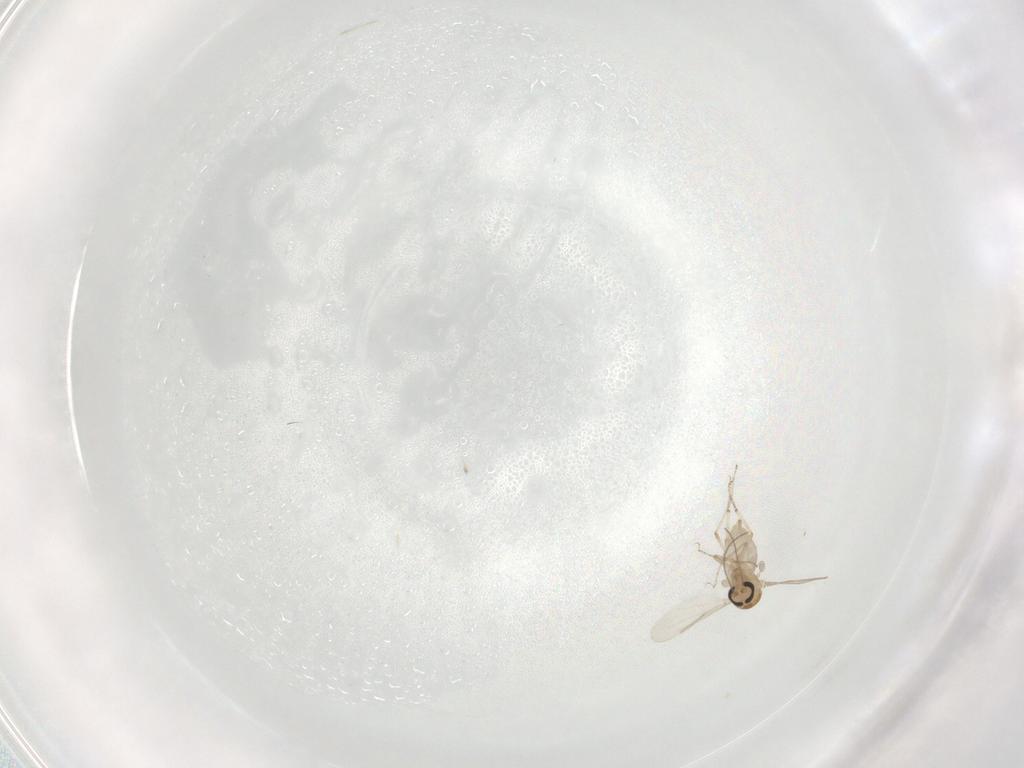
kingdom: Animalia
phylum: Arthropoda
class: Insecta
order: Diptera
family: Ceratopogonidae
